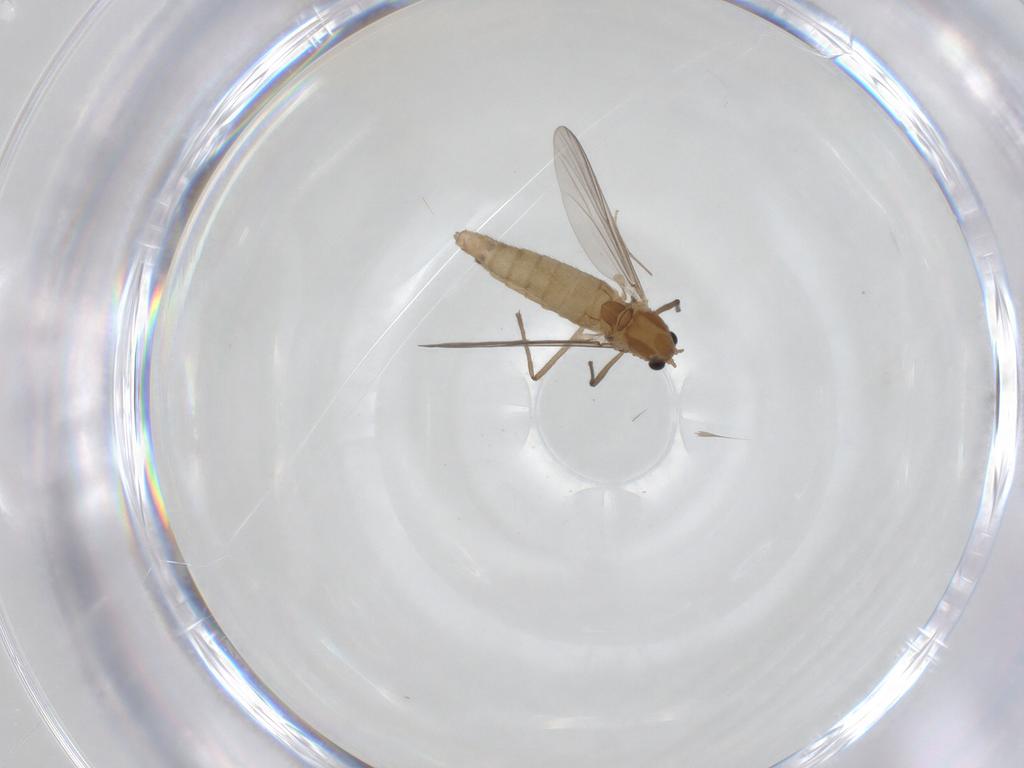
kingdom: Animalia
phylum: Arthropoda
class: Insecta
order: Diptera
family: Chironomidae
